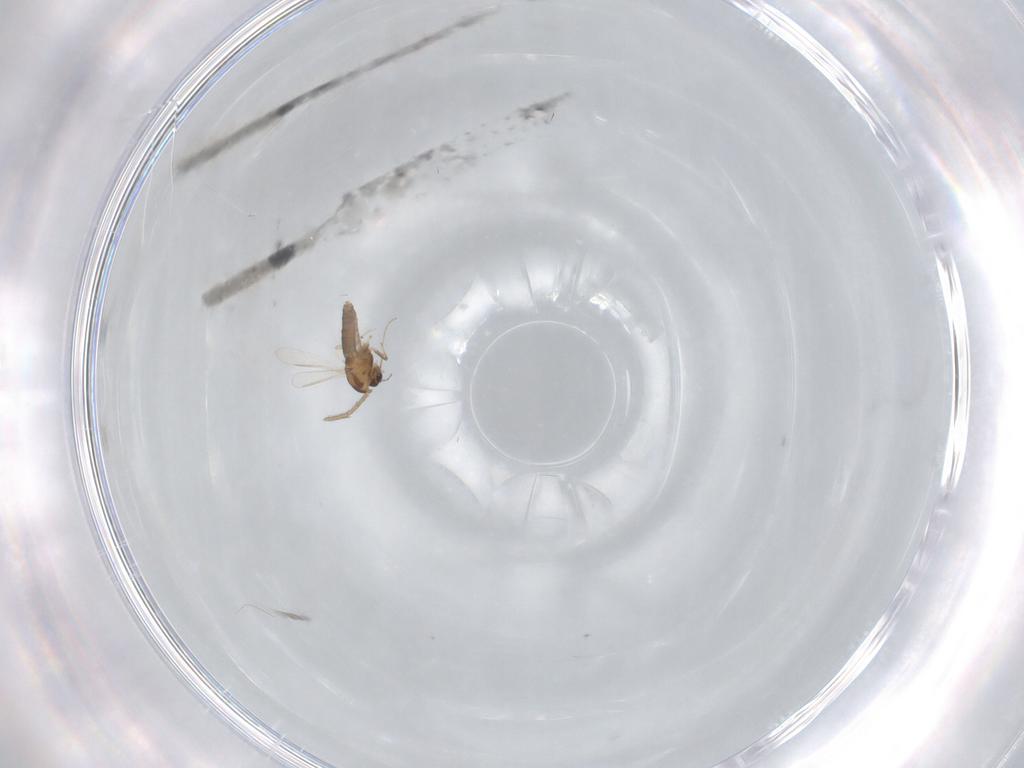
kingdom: Animalia
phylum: Arthropoda
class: Insecta
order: Diptera
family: Sphaeroceridae
